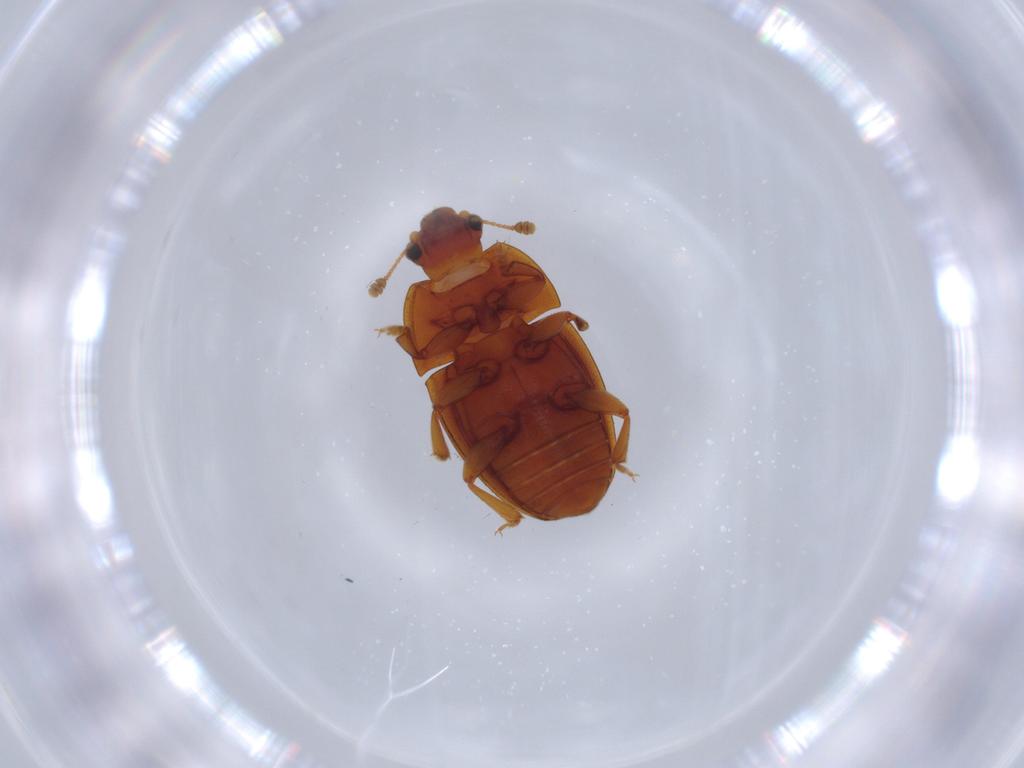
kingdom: Animalia
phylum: Arthropoda
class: Insecta
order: Coleoptera
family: Nitidulidae
